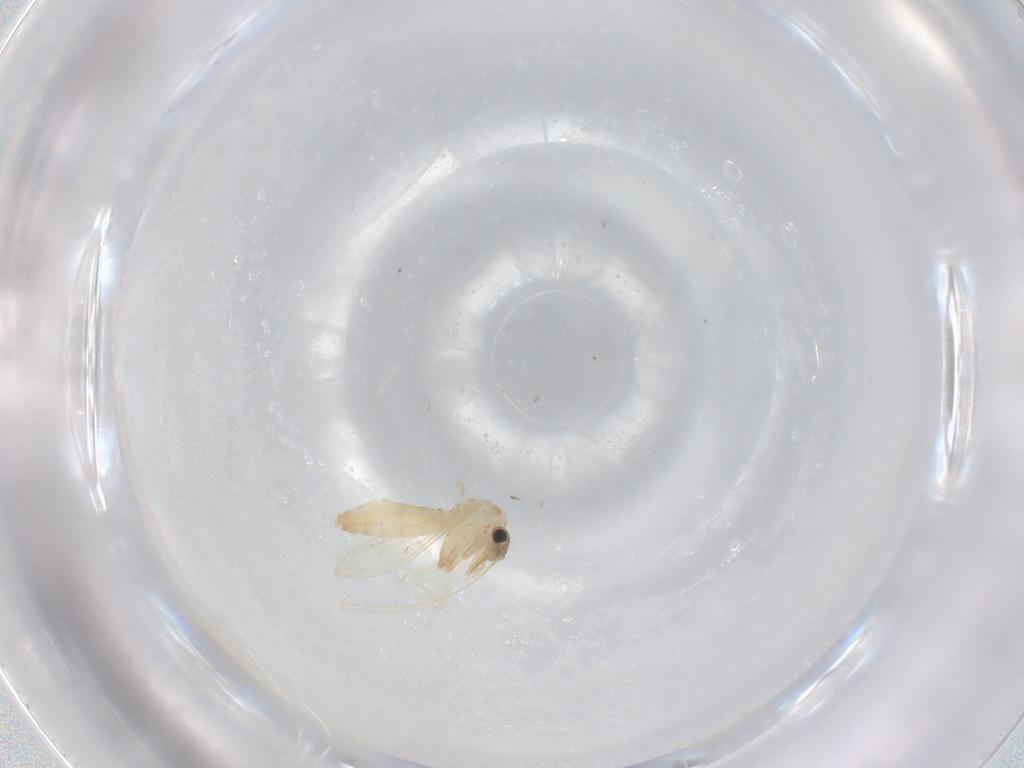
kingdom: Animalia
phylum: Arthropoda
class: Insecta
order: Diptera
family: Psychodidae
